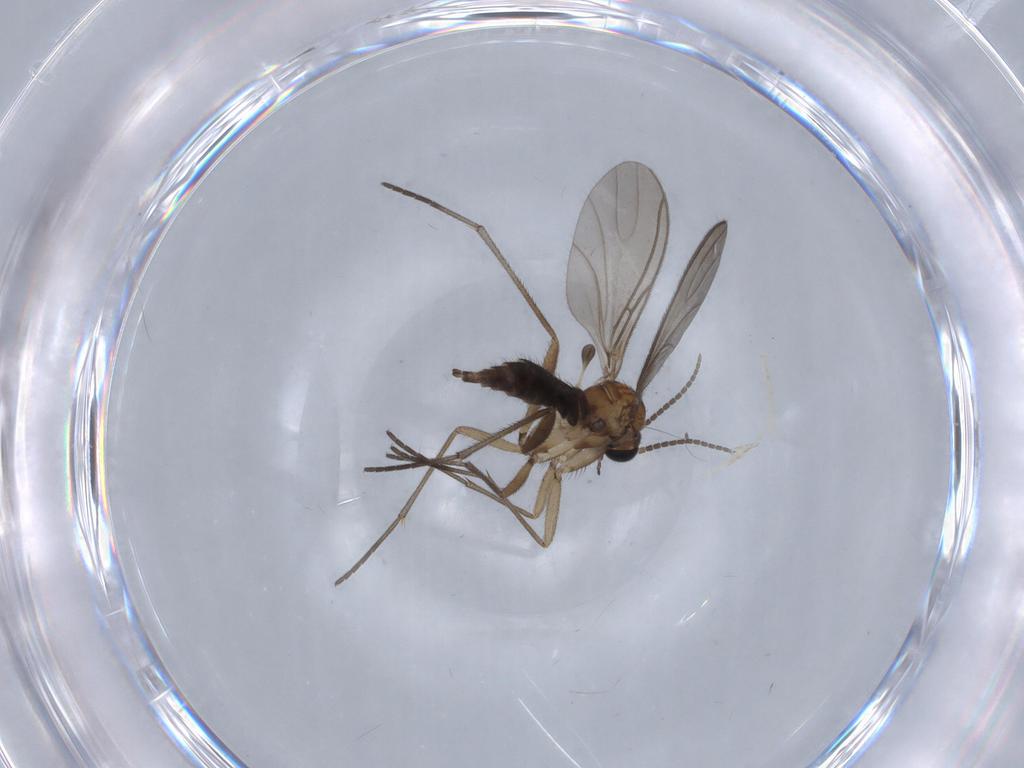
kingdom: Animalia
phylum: Arthropoda
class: Insecta
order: Diptera
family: Sciaridae
